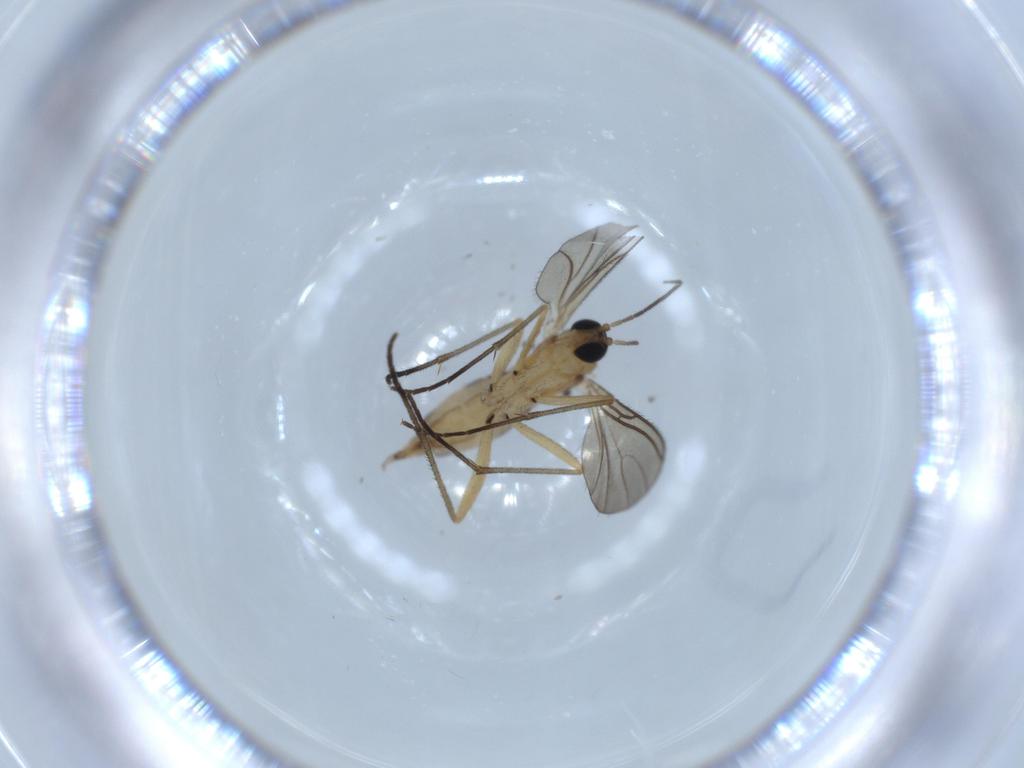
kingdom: Animalia
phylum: Arthropoda
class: Insecta
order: Diptera
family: Sciaridae
